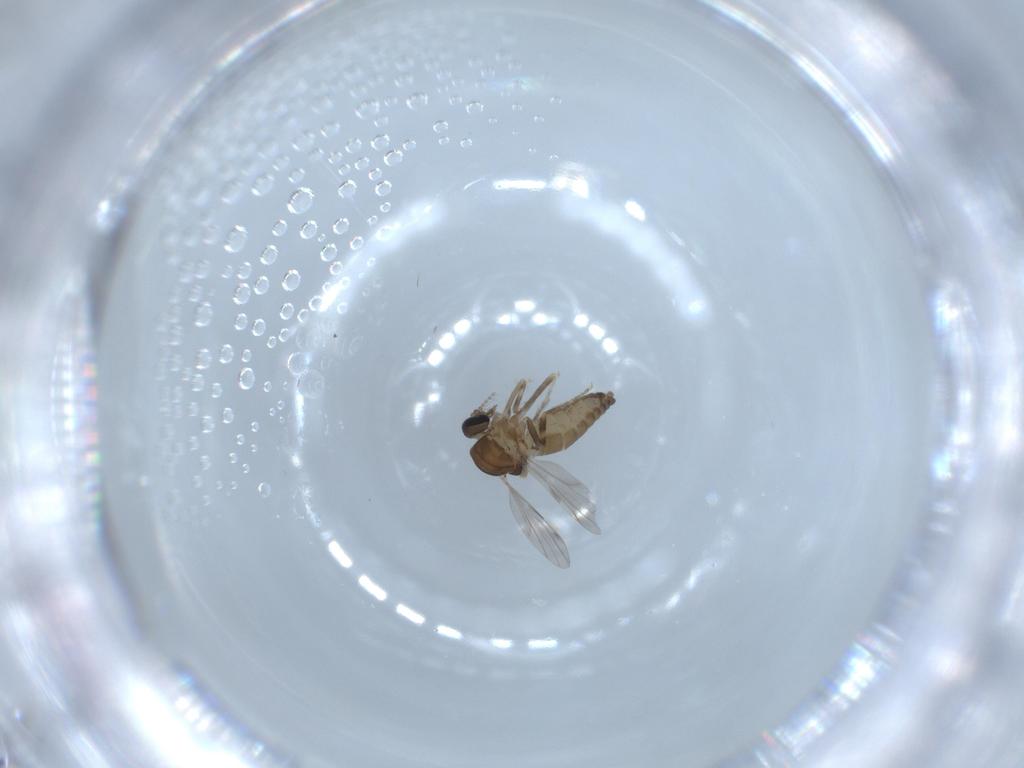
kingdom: Animalia
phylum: Arthropoda
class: Insecta
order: Diptera
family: Ceratopogonidae
